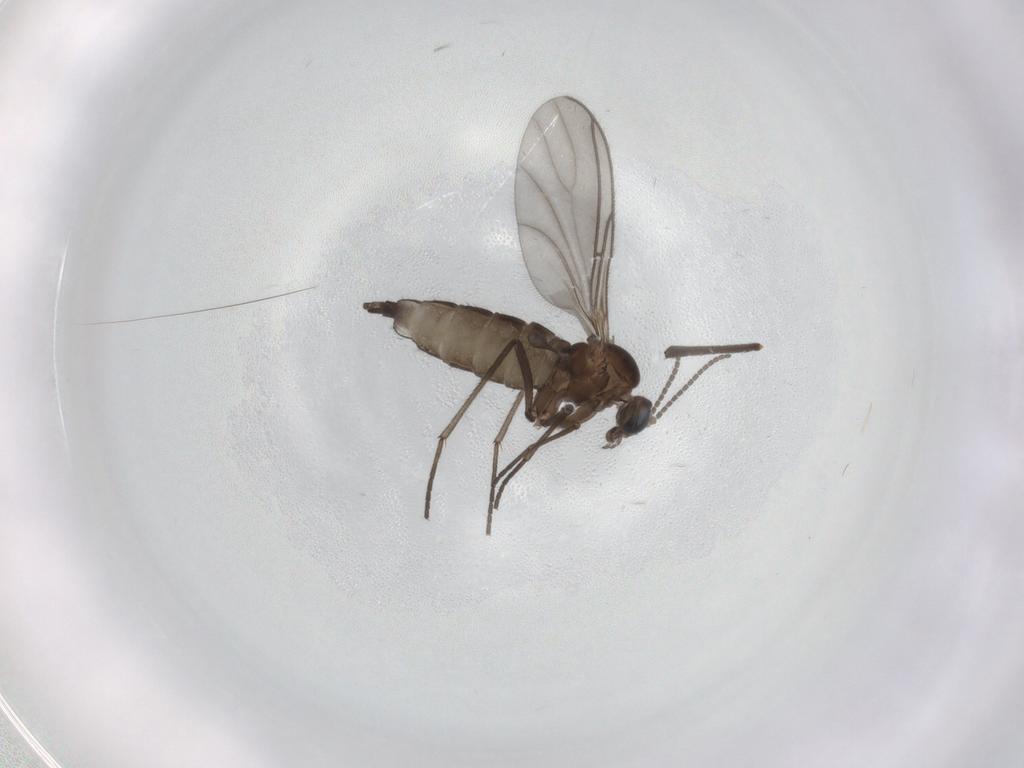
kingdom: Animalia
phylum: Arthropoda
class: Insecta
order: Diptera
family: Sciaridae
